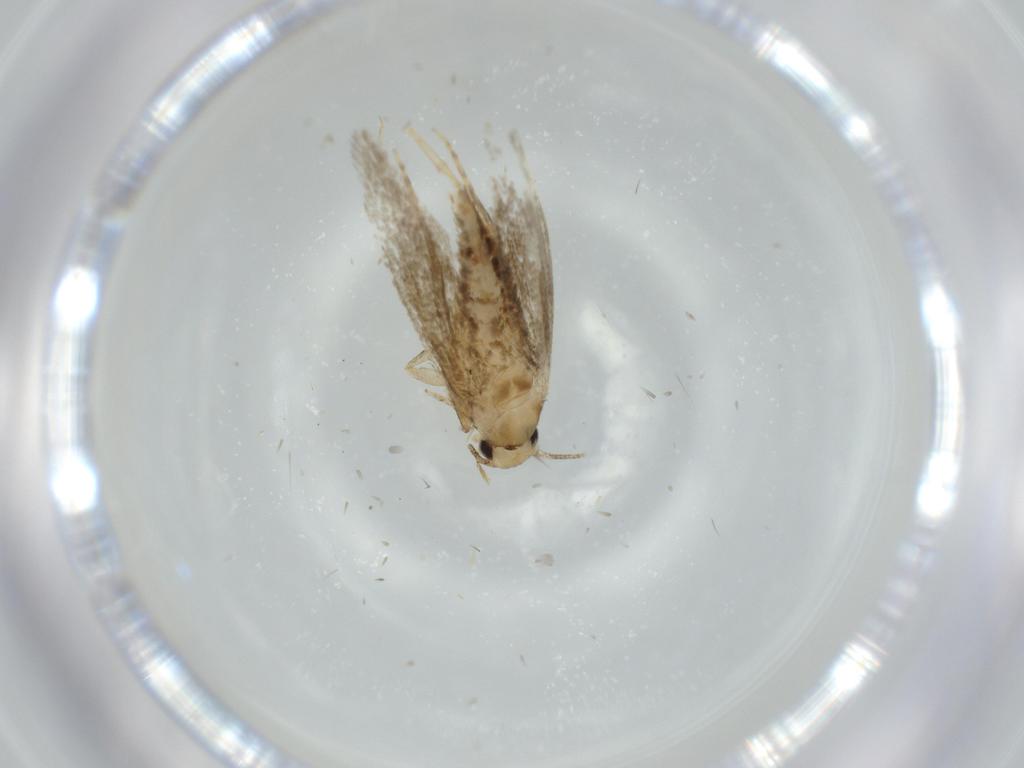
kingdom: Animalia
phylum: Arthropoda
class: Insecta
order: Lepidoptera
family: Tineidae
